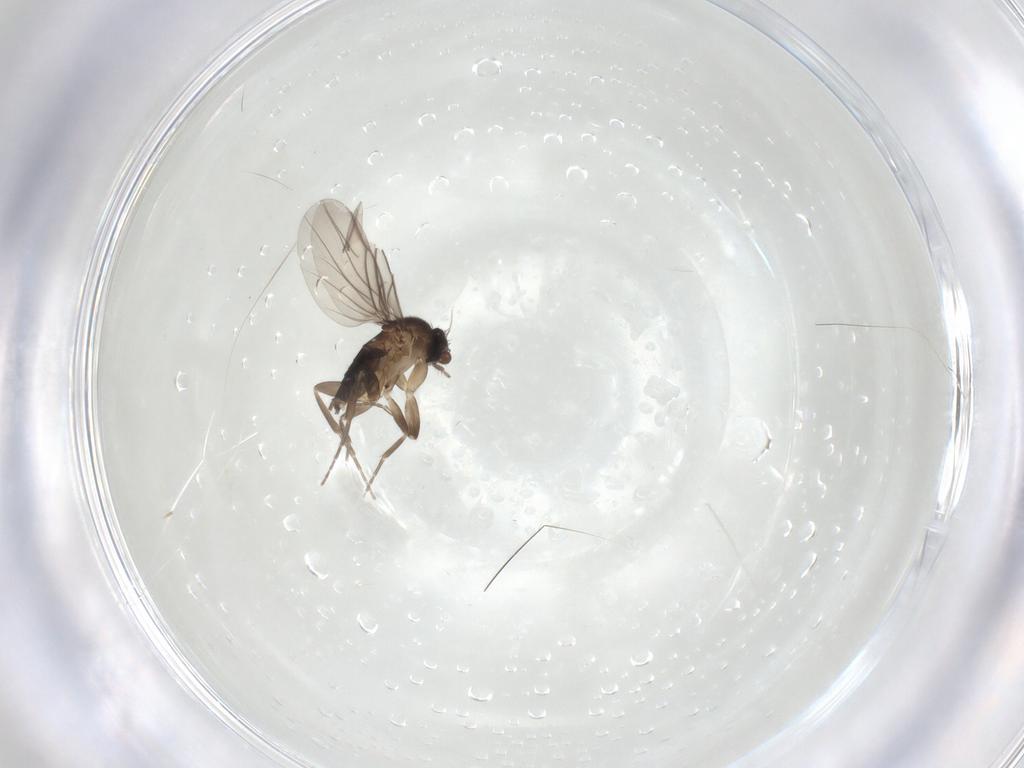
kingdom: Animalia
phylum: Arthropoda
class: Insecta
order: Diptera
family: Phoridae
